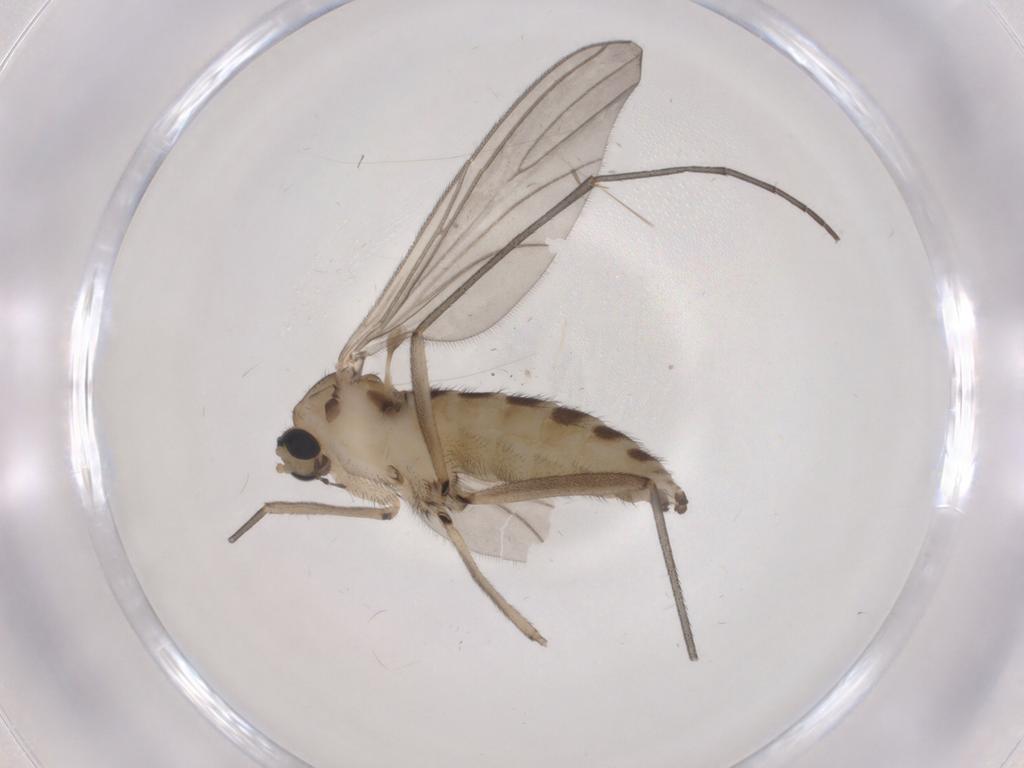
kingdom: Animalia
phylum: Arthropoda
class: Insecta
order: Diptera
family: Sciaridae
